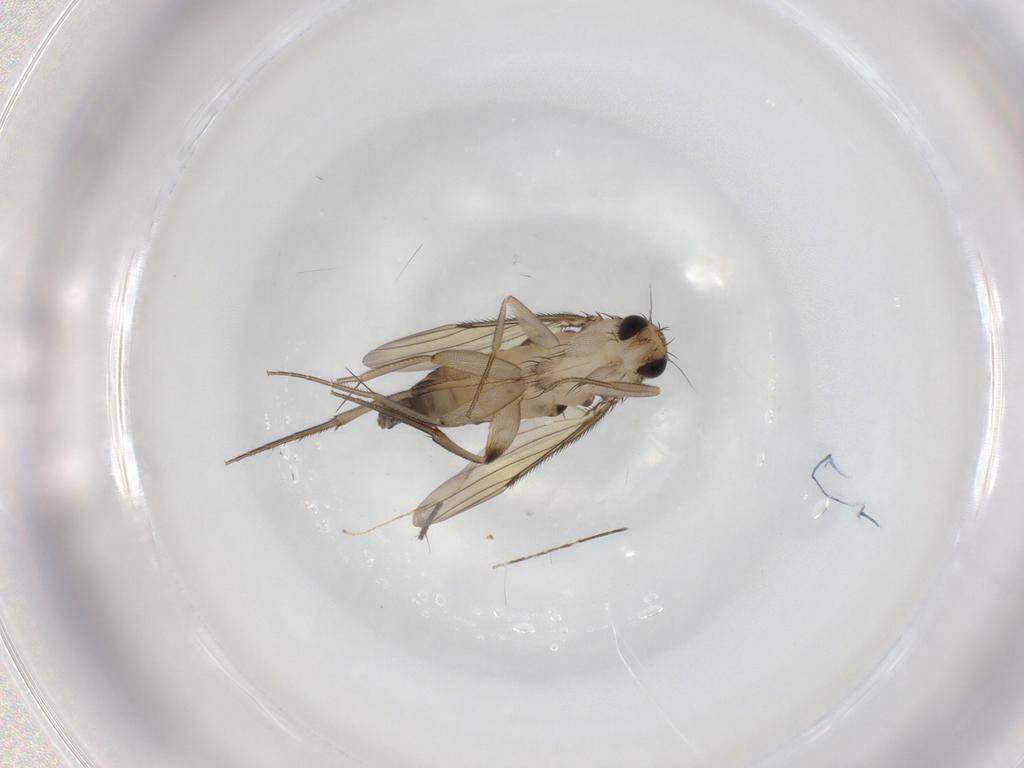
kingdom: Animalia
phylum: Arthropoda
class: Insecta
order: Diptera
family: Phoridae
